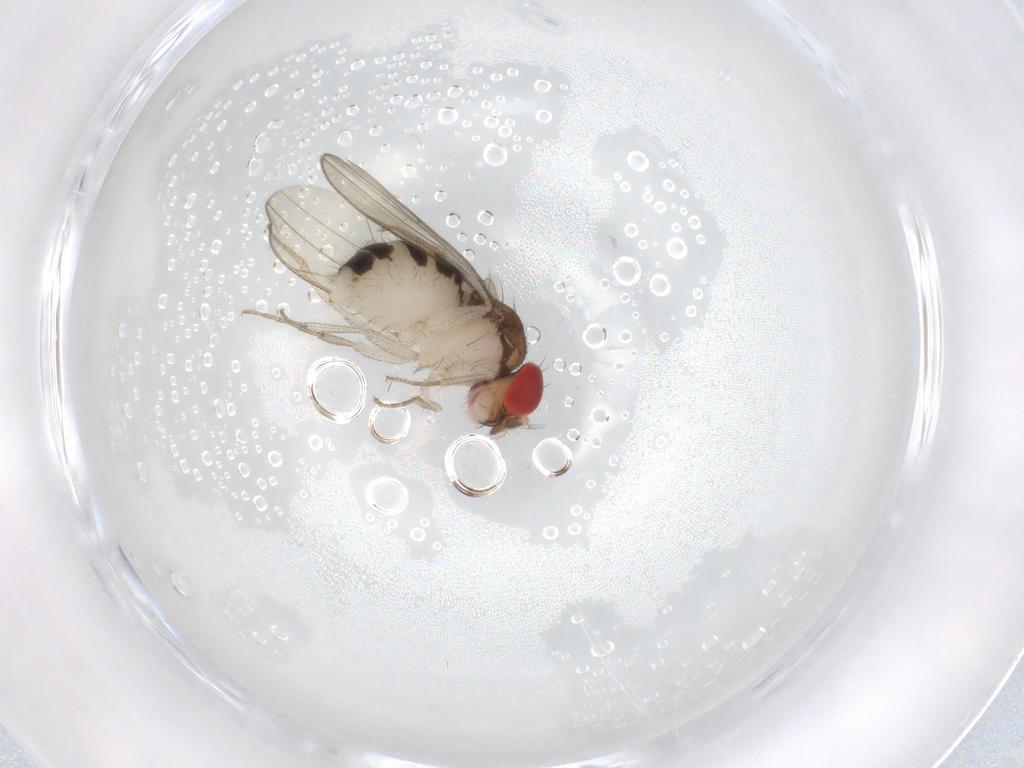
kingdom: Animalia
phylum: Arthropoda
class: Insecta
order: Diptera
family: Drosophilidae
